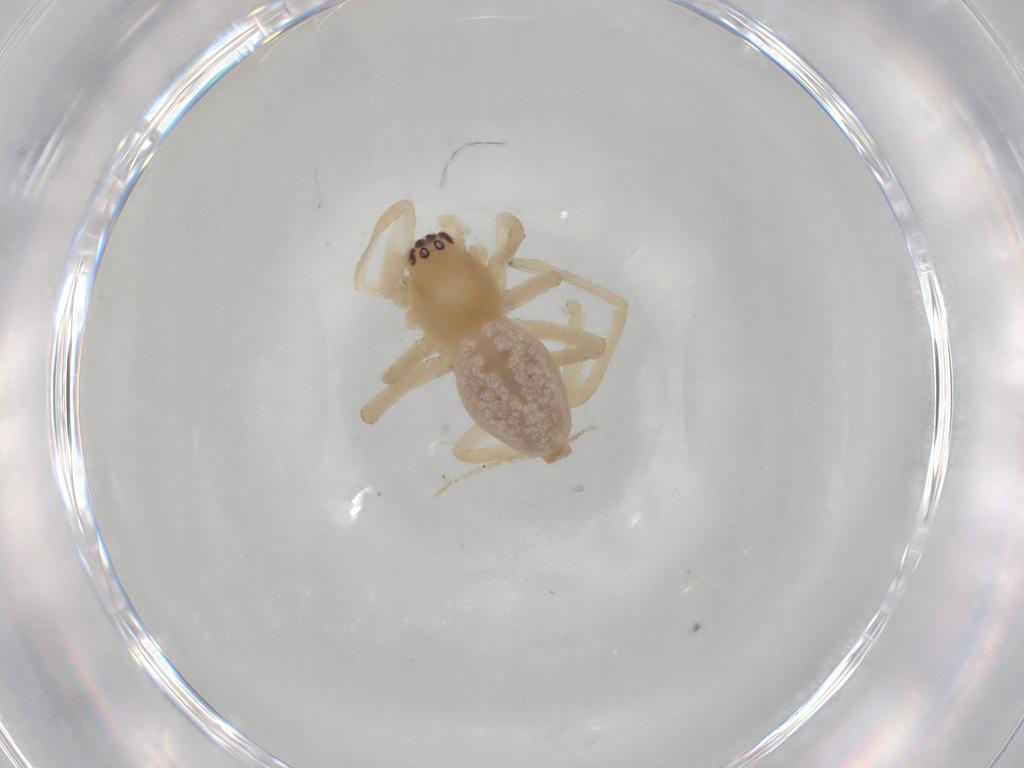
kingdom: Animalia
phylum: Arthropoda
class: Arachnida
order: Araneae
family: Cheiracanthiidae
